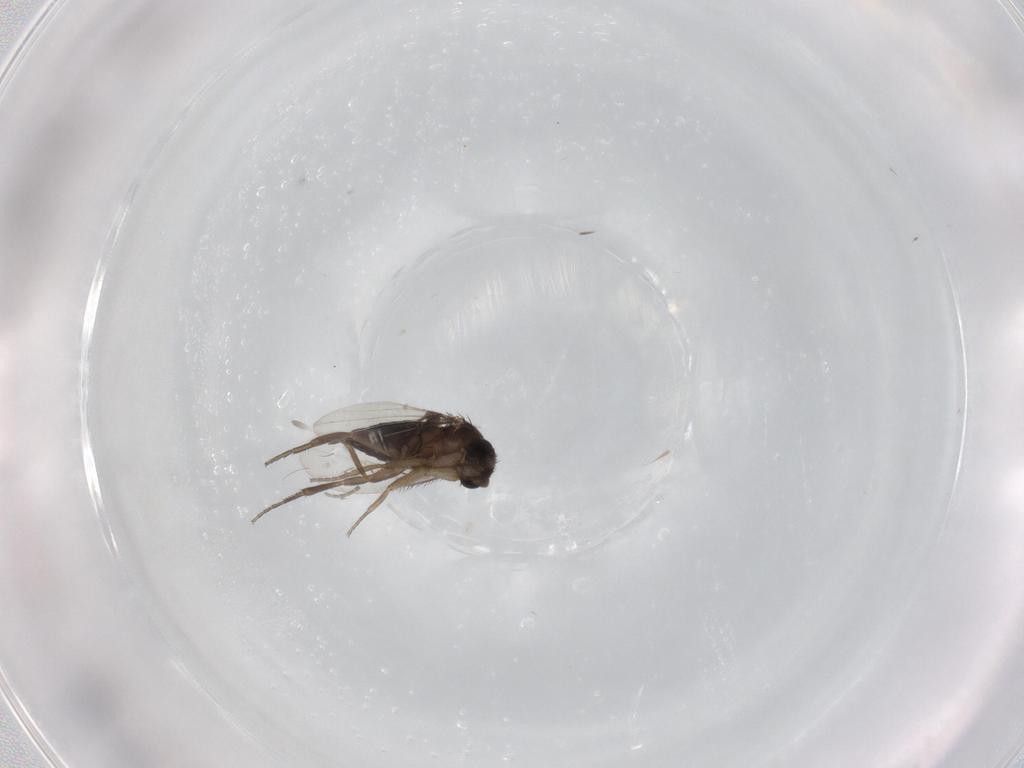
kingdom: Animalia
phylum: Arthropoda
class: Insecta
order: Diptera
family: Phoridae
